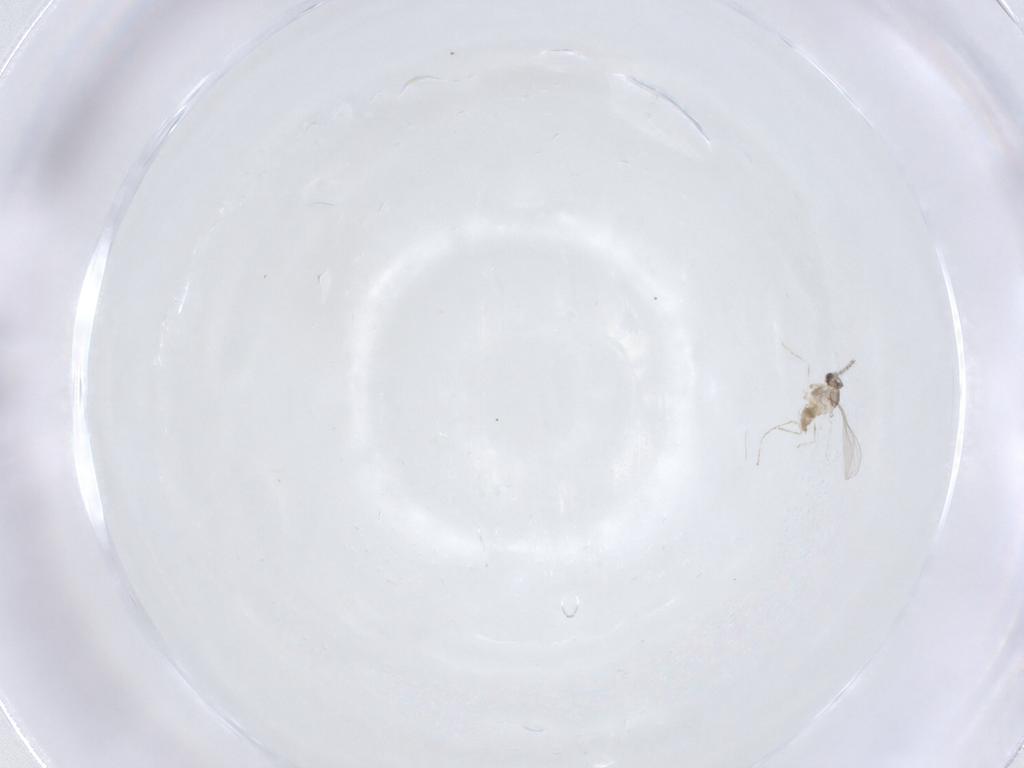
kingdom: Animalia
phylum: Arthropoda
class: Insecta
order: Diptera
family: Cecidomyiidae
